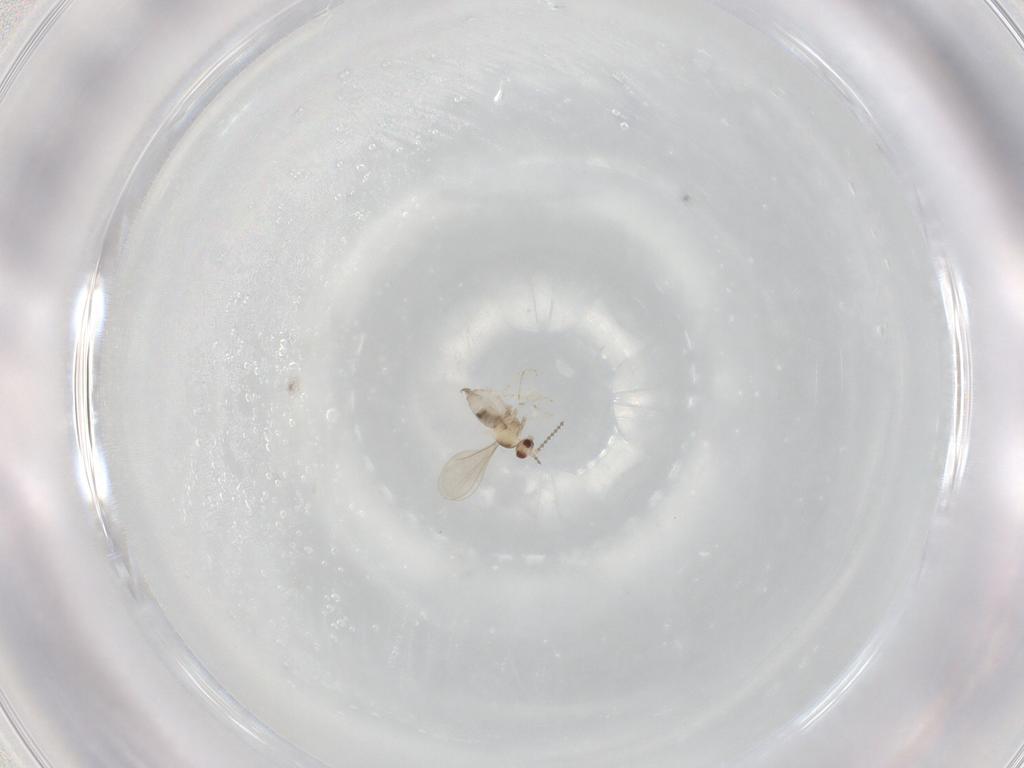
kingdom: Animalia
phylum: Arthropoda
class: Insecta
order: Diptera
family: Cecidomyiidae
